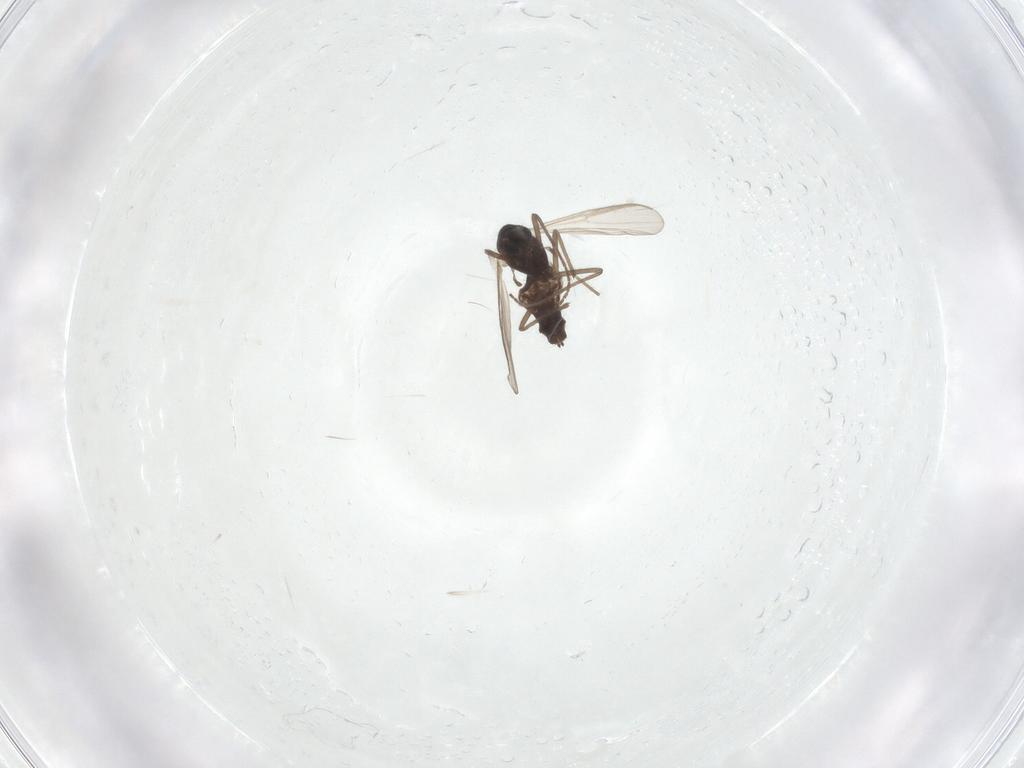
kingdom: Animalia
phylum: Arthropoda
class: Insecta
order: Diptera
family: Chironomidae
